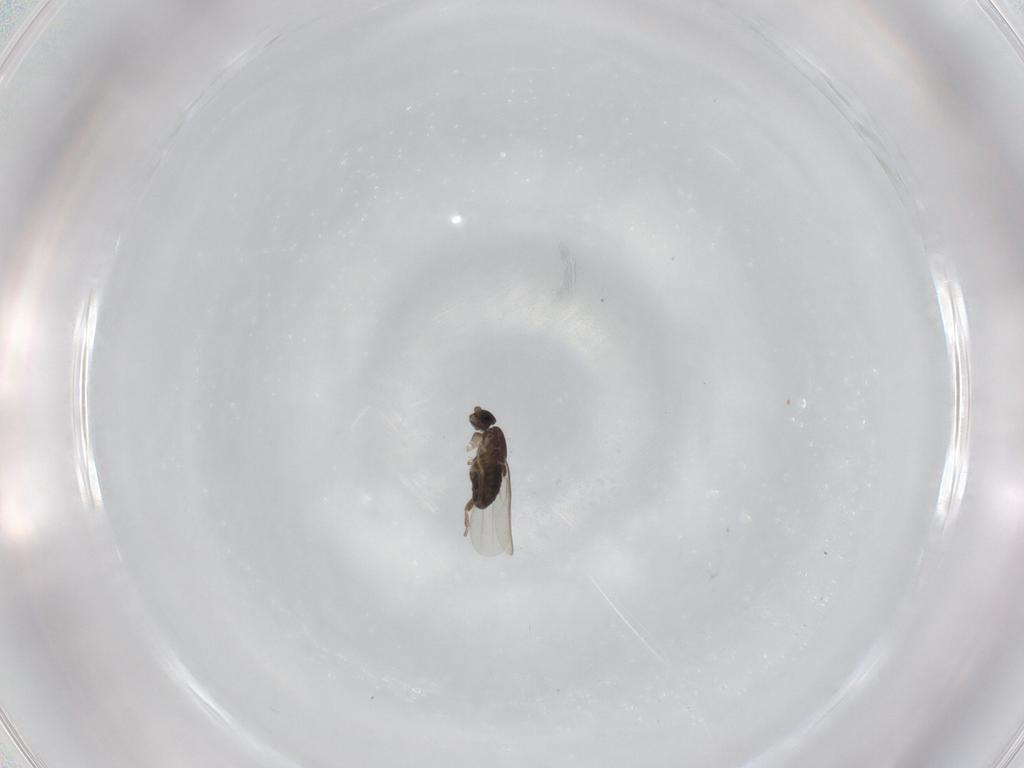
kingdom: Animalia
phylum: Arthropoda
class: Insecta
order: Diptera
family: Phoridae
